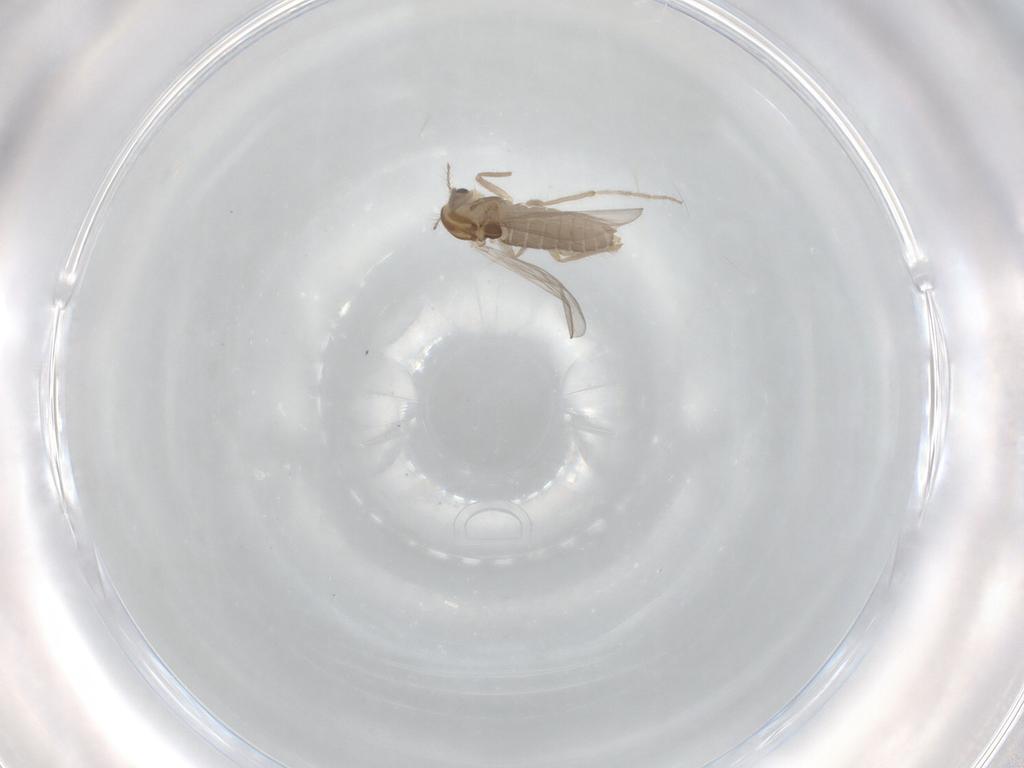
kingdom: Animalia
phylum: Arthropoda
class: Insecta
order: Diptera
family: Chironomidae
